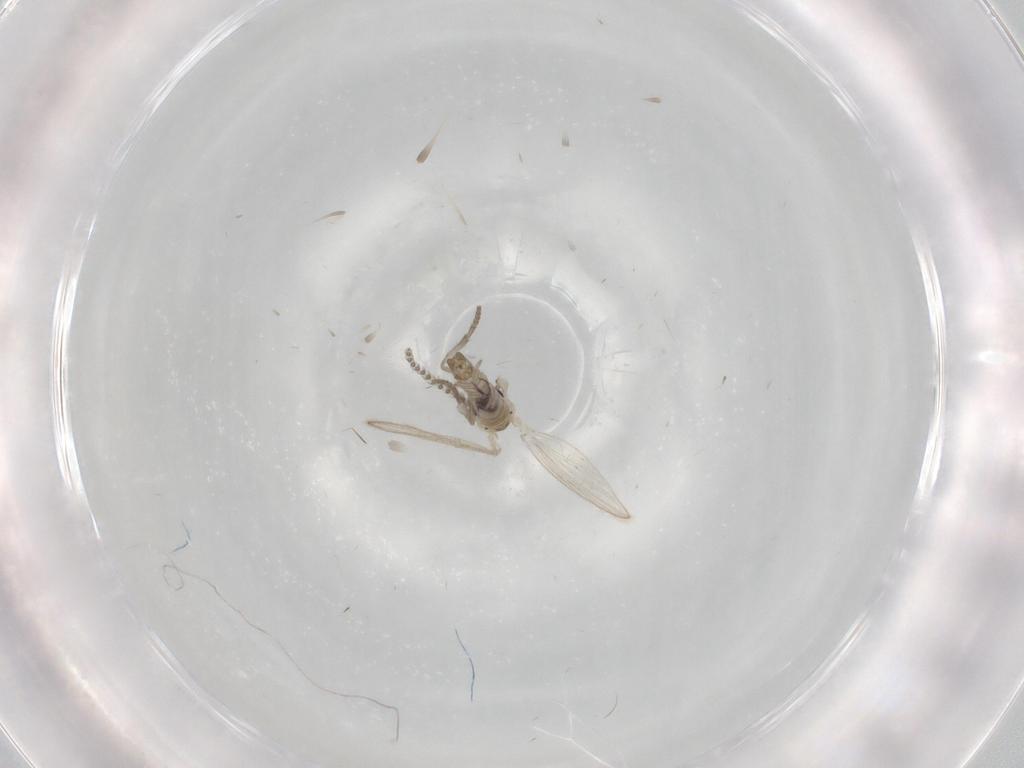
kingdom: Animalia
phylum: Arthropoda
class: Insecta
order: Diptera
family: Psychodidae
